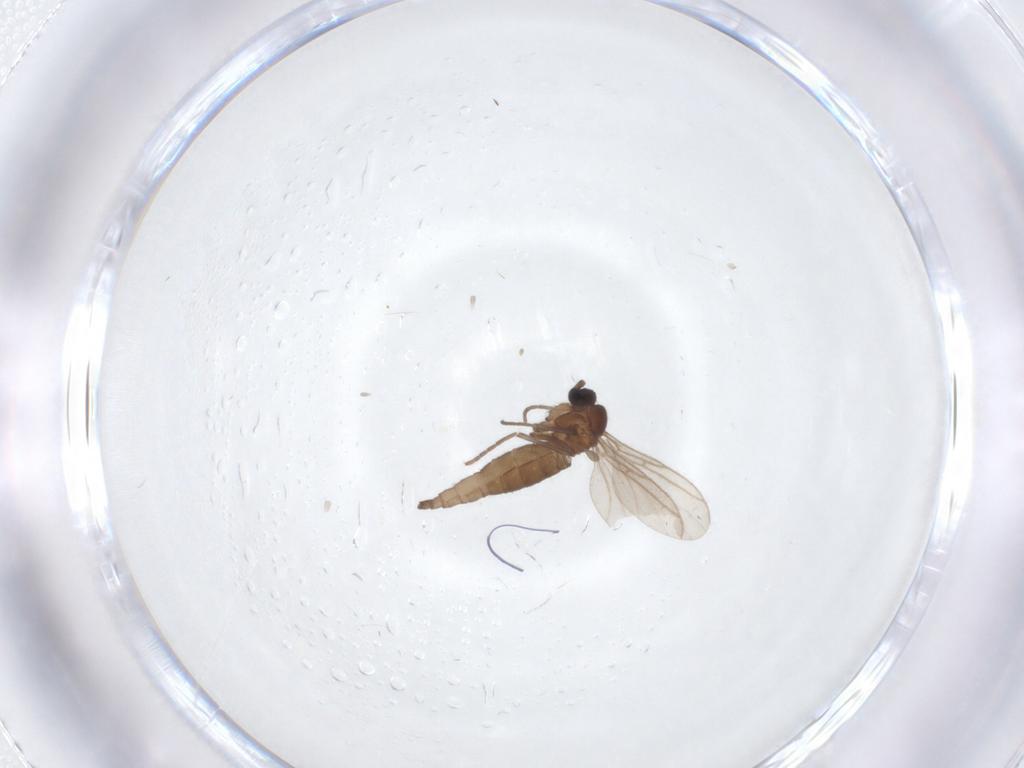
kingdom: Animalia
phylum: Arthropoda
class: Insecta
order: Diptera
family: Sciaridae
